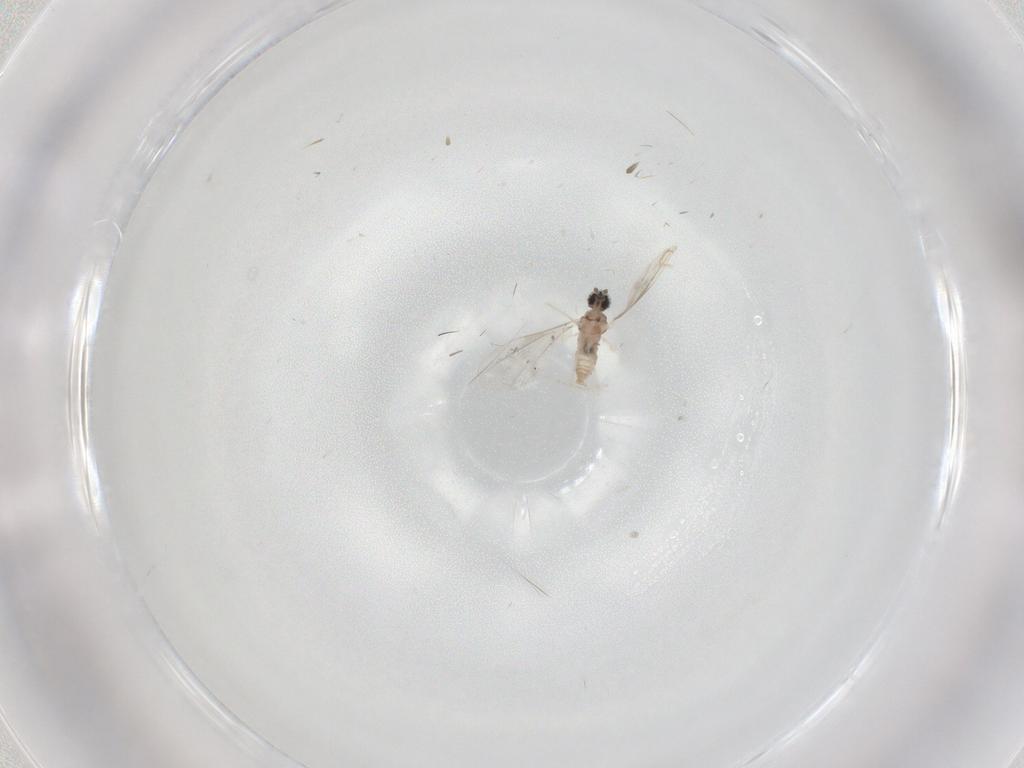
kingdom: Animalia
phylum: Arthropoda
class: Insecta
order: Diptera
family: Cecidomyiidae
